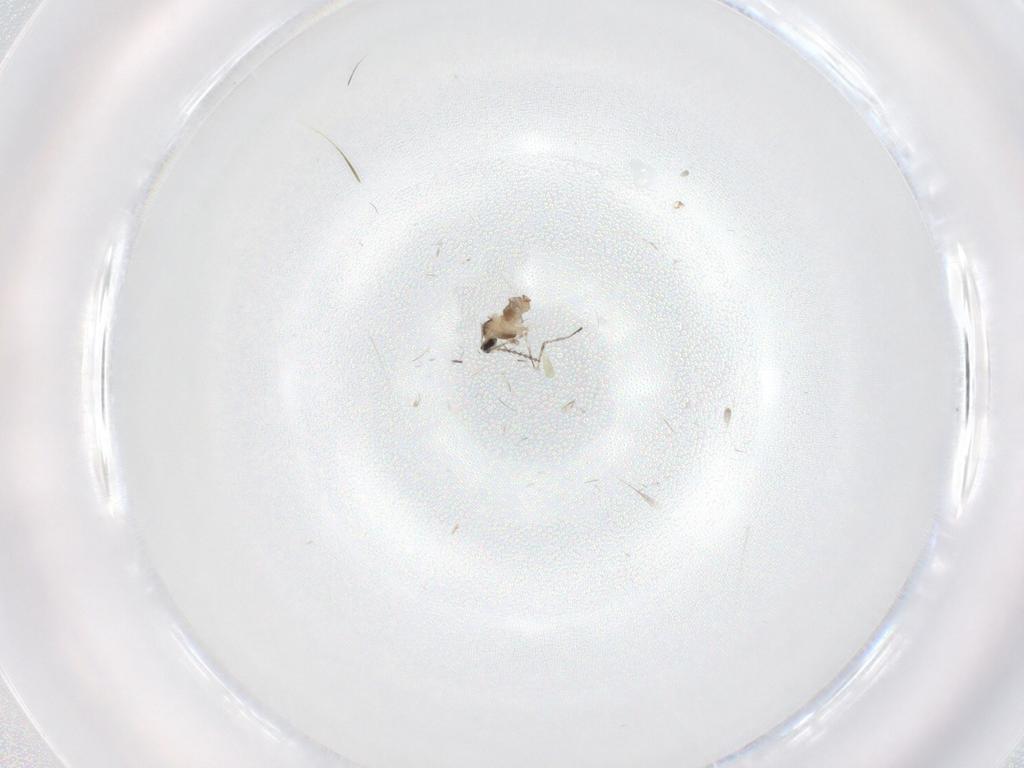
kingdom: Animalia
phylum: Arthropoda
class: Insecta
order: Diptera
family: Cecidomyiidae
